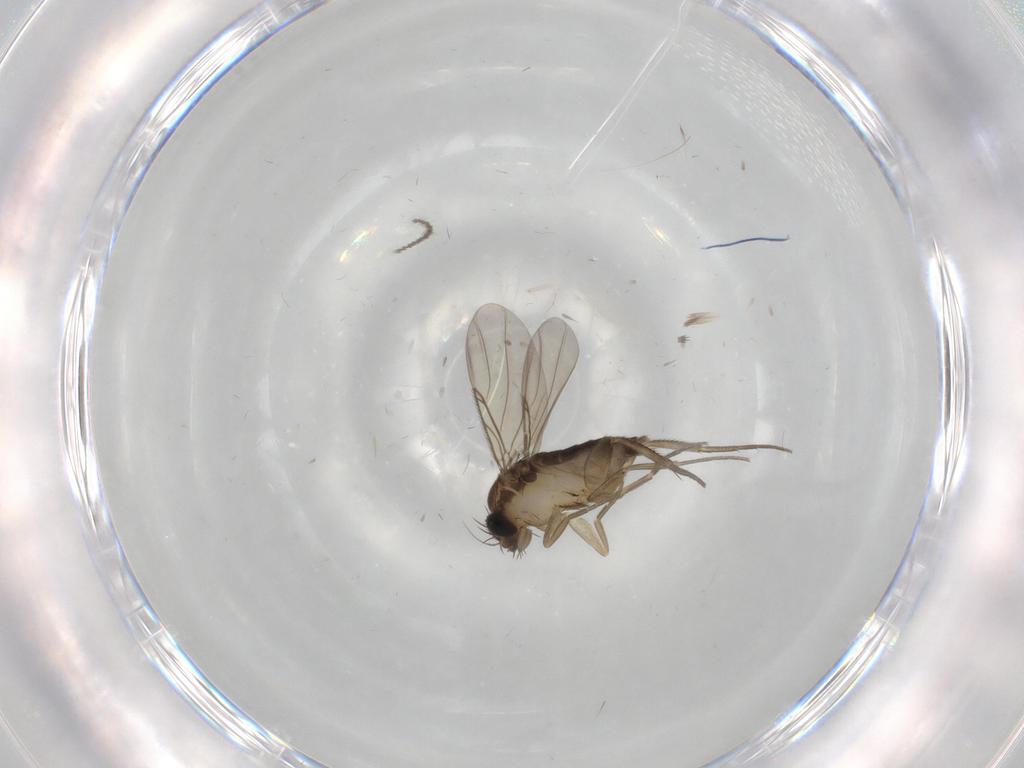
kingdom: Animalia
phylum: Arthropoda
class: Insecta
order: Diptera
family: Phoridae
